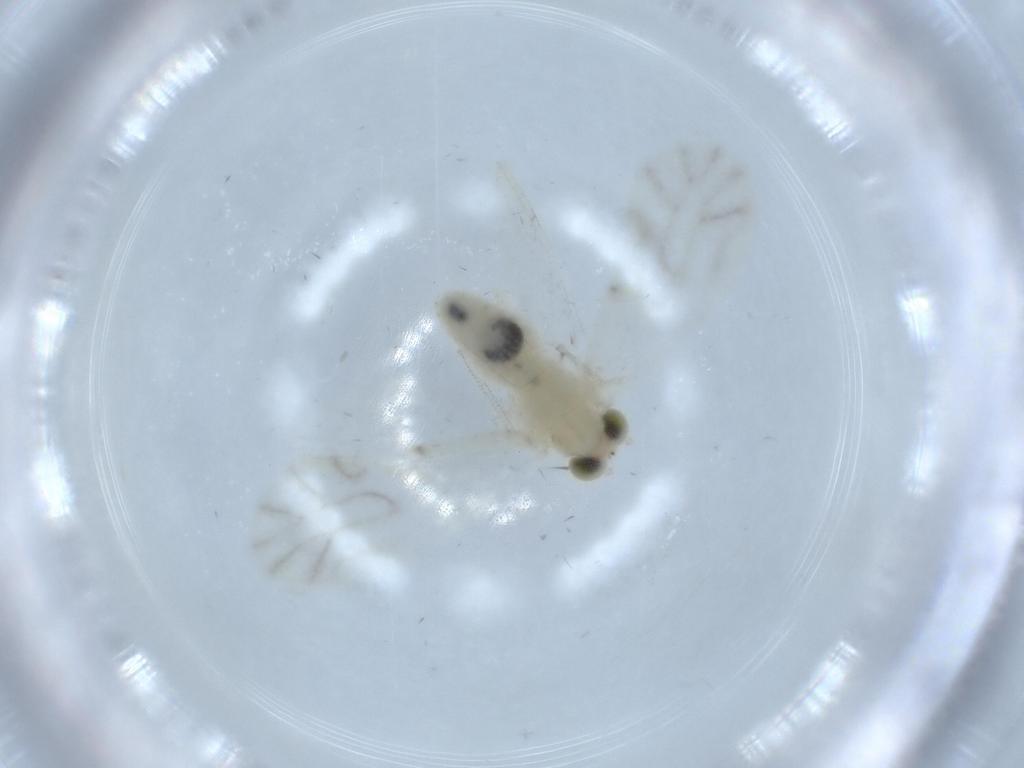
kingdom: Animalia
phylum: Arthropoda
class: Insecta
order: Psocodea
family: Caeciliusidae
